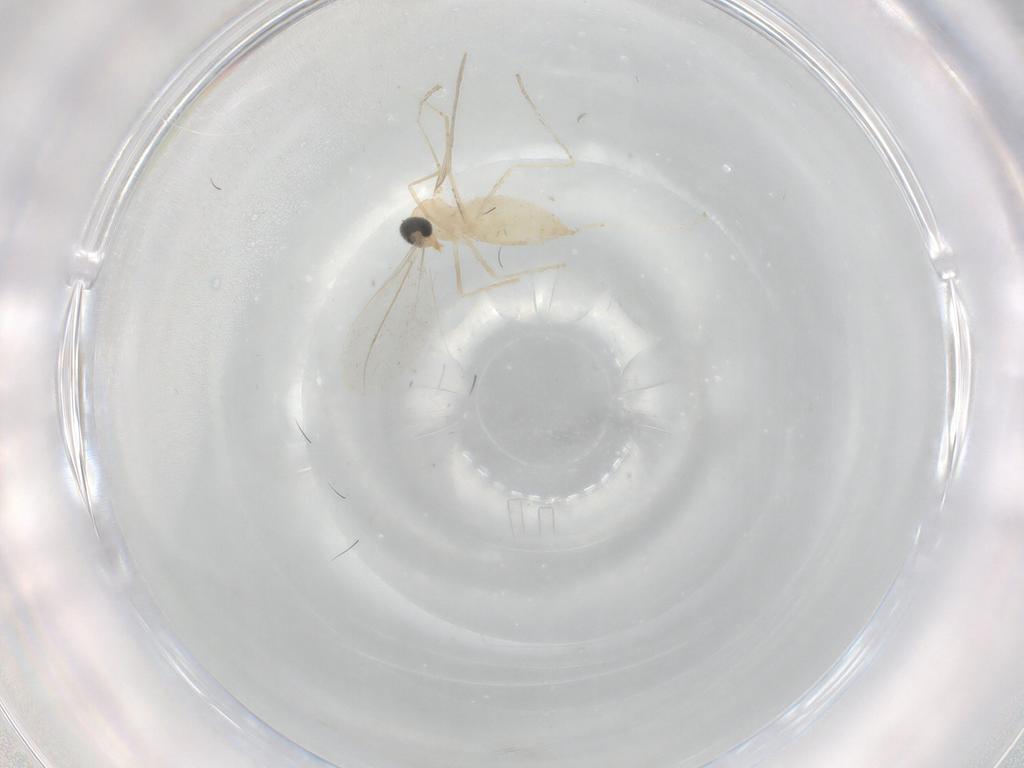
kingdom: Animalia
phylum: Arthropoda
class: Insecta
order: Diptera
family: Cecidomyiidae
